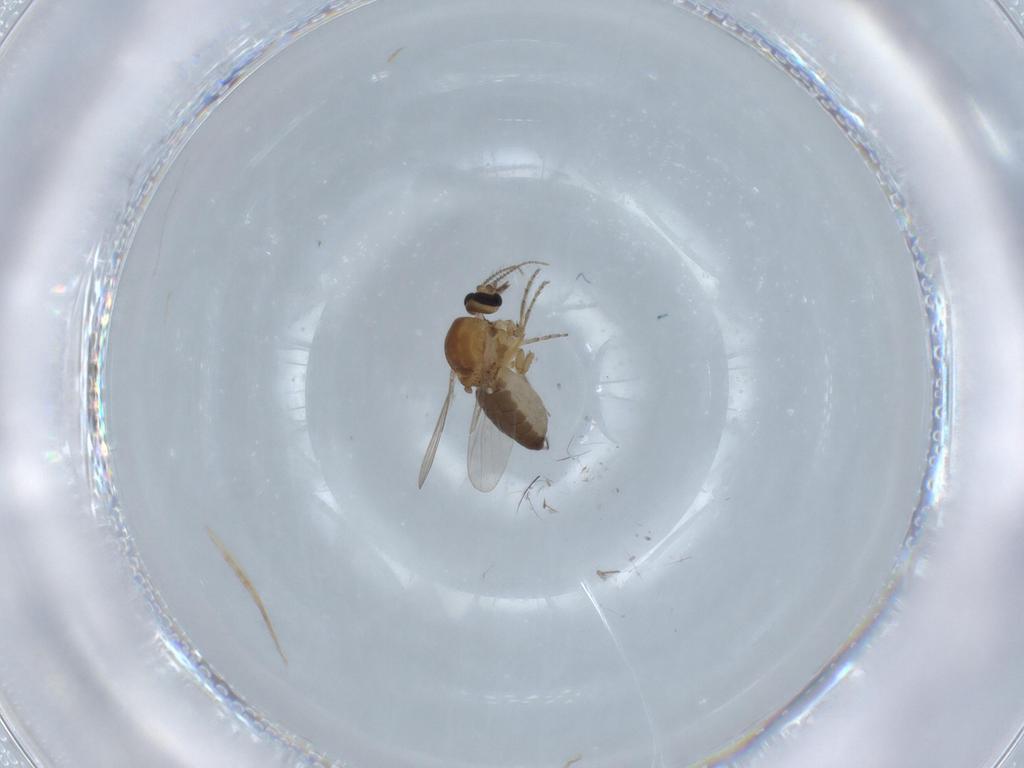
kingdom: Animalia
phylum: Arthropoda
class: Insecta
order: Diptera
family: Ceratopogonidae
